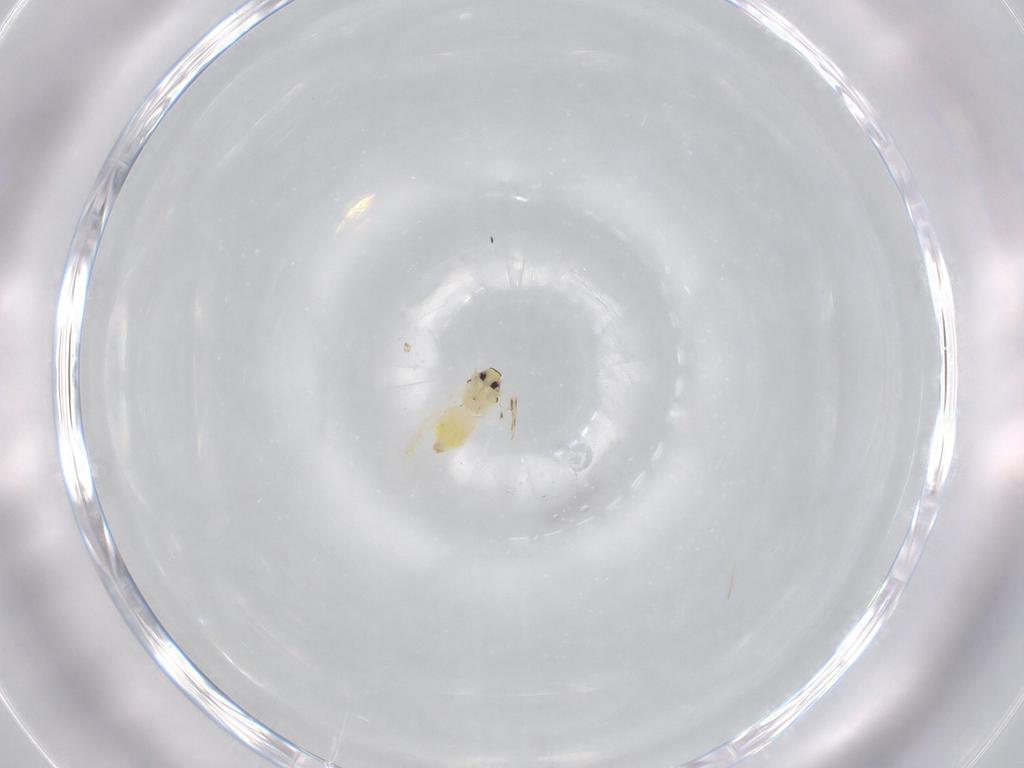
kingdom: Animalia
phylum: Arthropoda
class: Insecta
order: Hemiptera
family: Aleyrodidae
